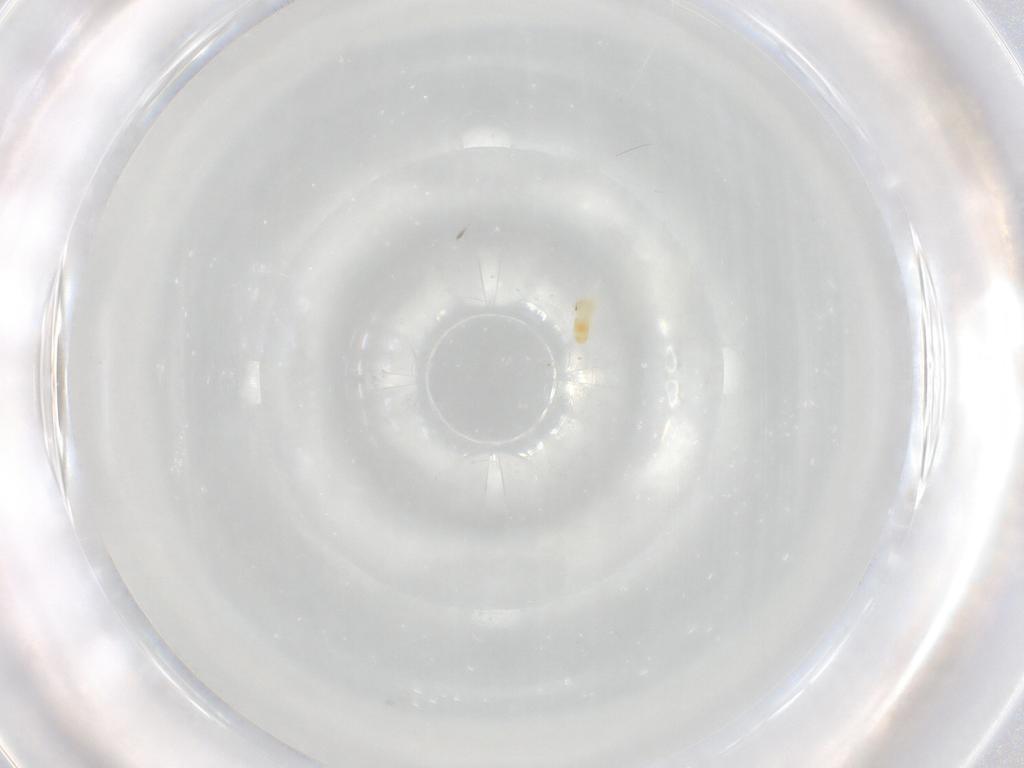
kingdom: Animalia
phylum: Arthropoda
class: Arachnida
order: Trombidiformes
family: Eupodidae
